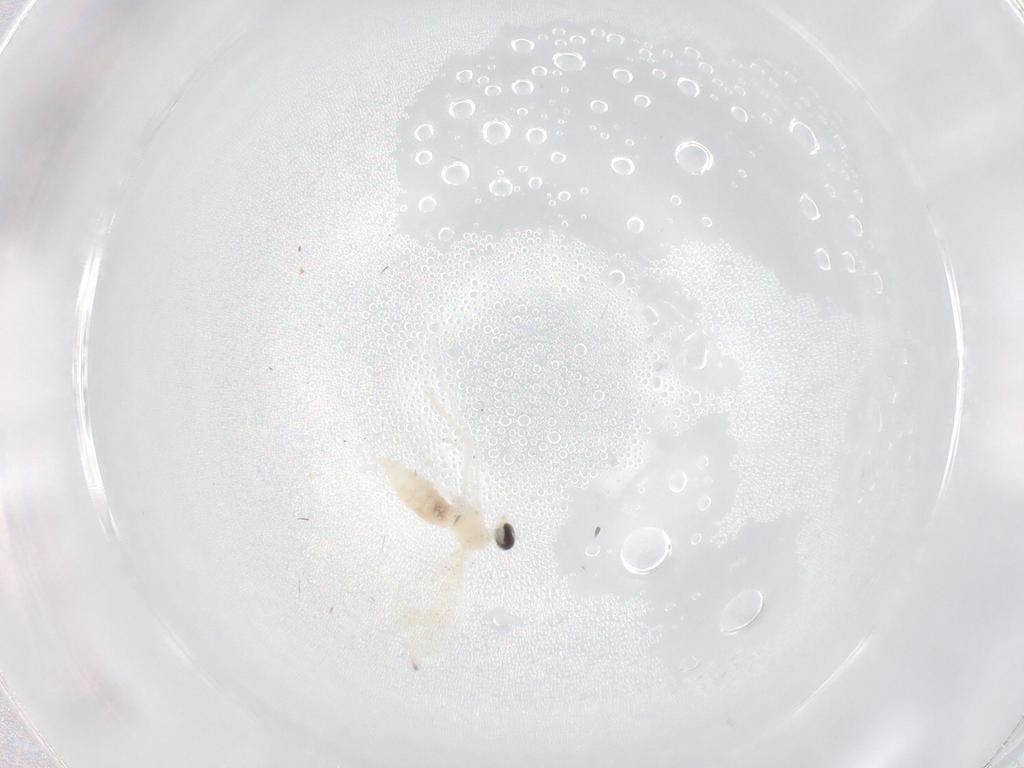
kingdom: Animalia
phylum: Arthropoda
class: Insecta
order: Diptera
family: Cecidomyiidae
